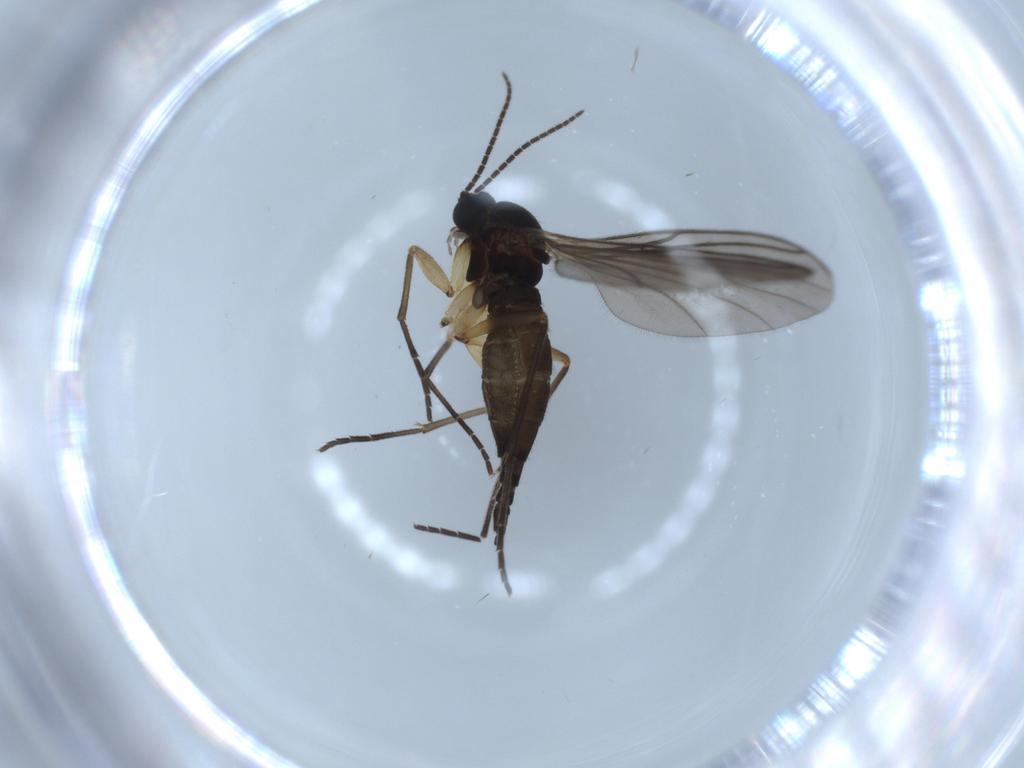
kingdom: Animalia
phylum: Arthropoda
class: Insecta
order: Diptera
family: Sciaridae
